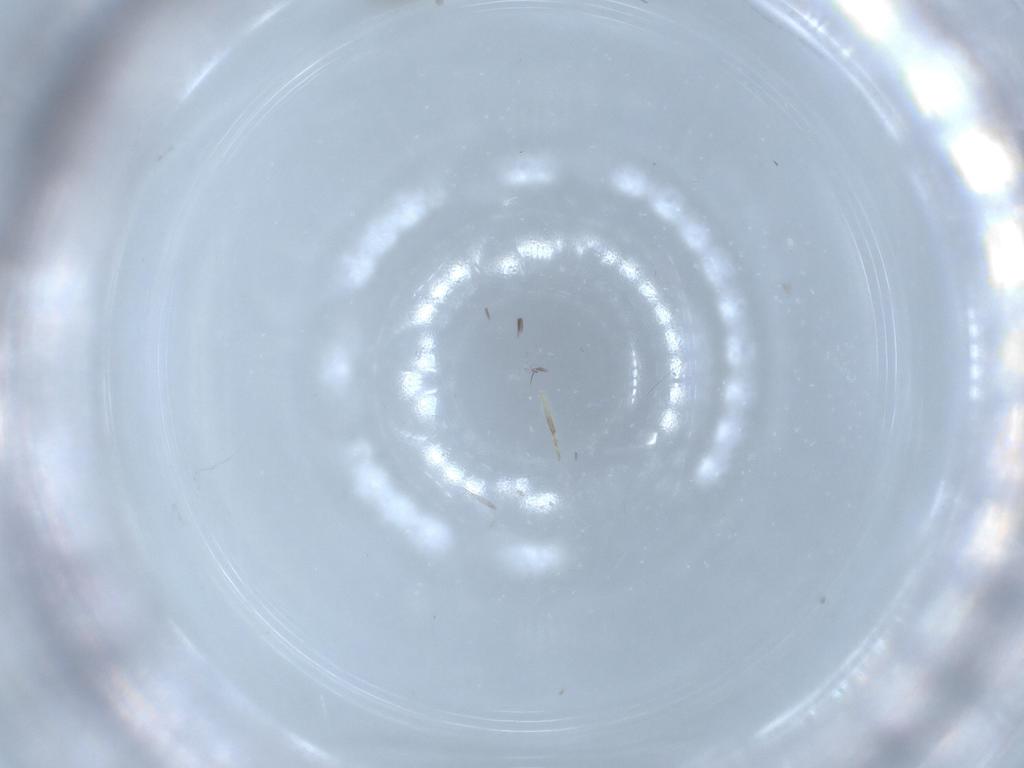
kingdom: Animalia
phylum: Arthropoda
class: Insecta
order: Diptera
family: Ceratopogonidae
